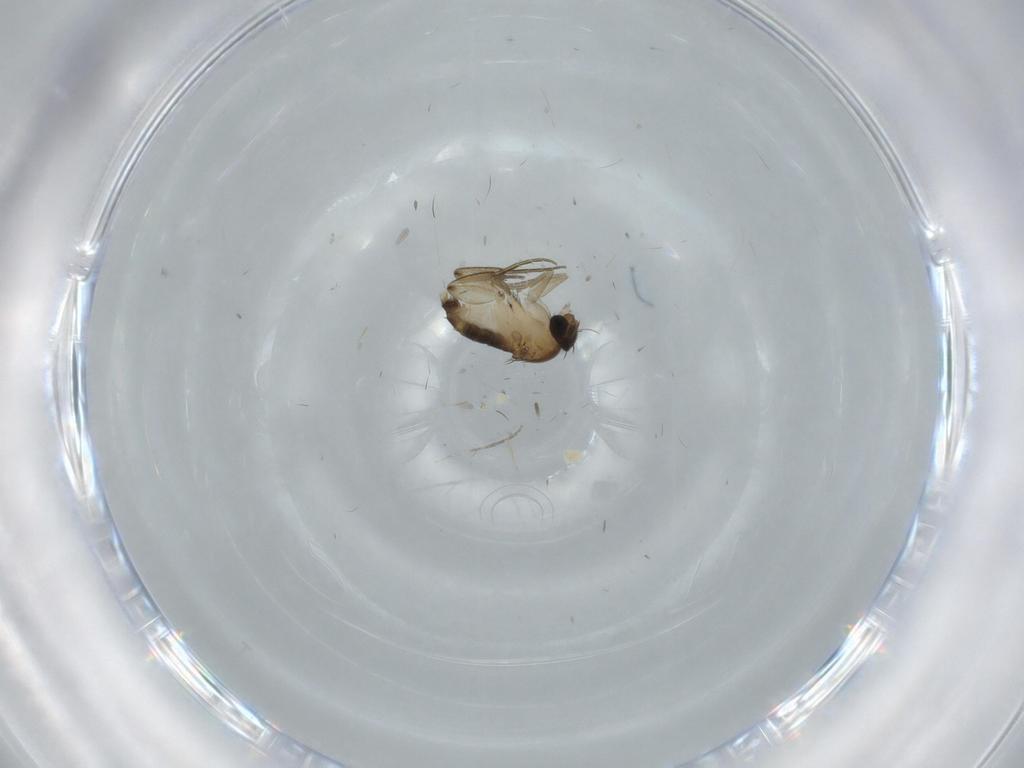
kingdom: Animalia
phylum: Arthropoda
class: Insecta
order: Diptera
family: Phoridae
